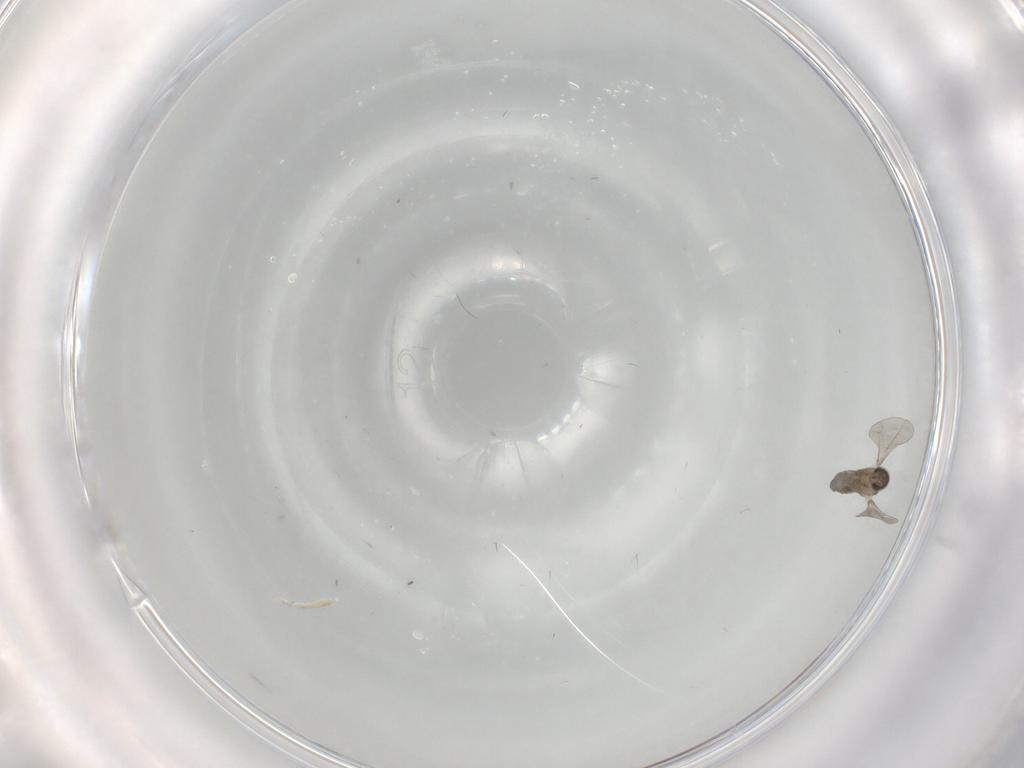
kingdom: Animalia
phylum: Arthropoda
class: Insecta
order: Diptera
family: Cecidomyiidae
